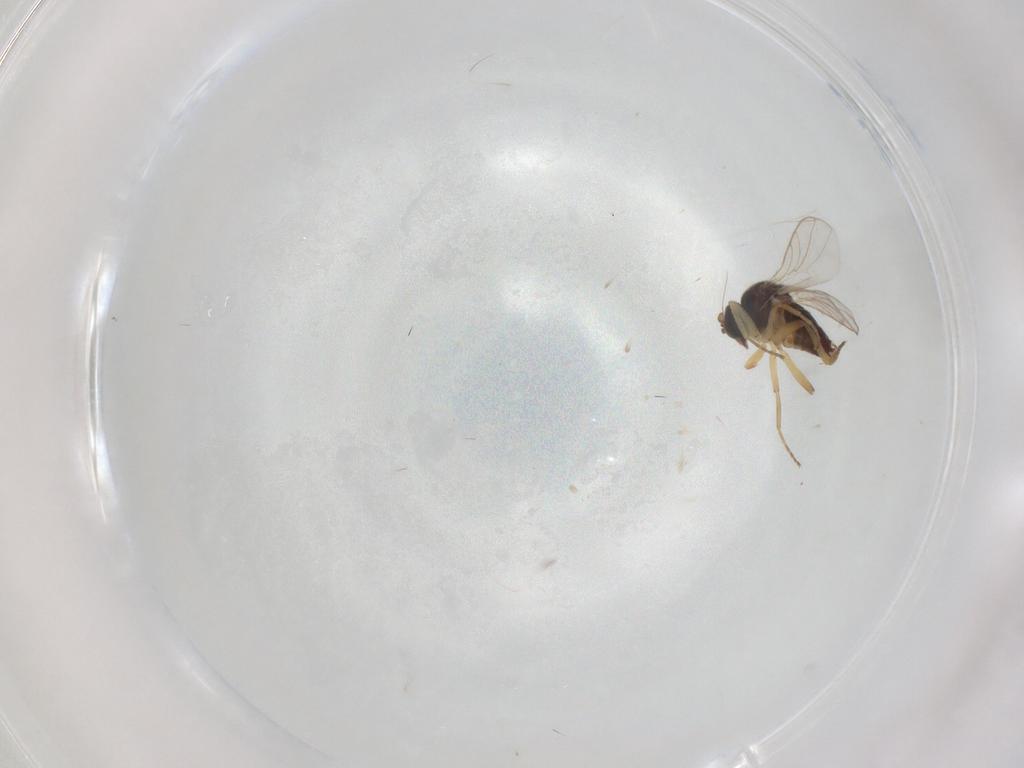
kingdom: Animalia
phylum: Arthropoda
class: Insecta
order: Diptera
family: Hybotidae
